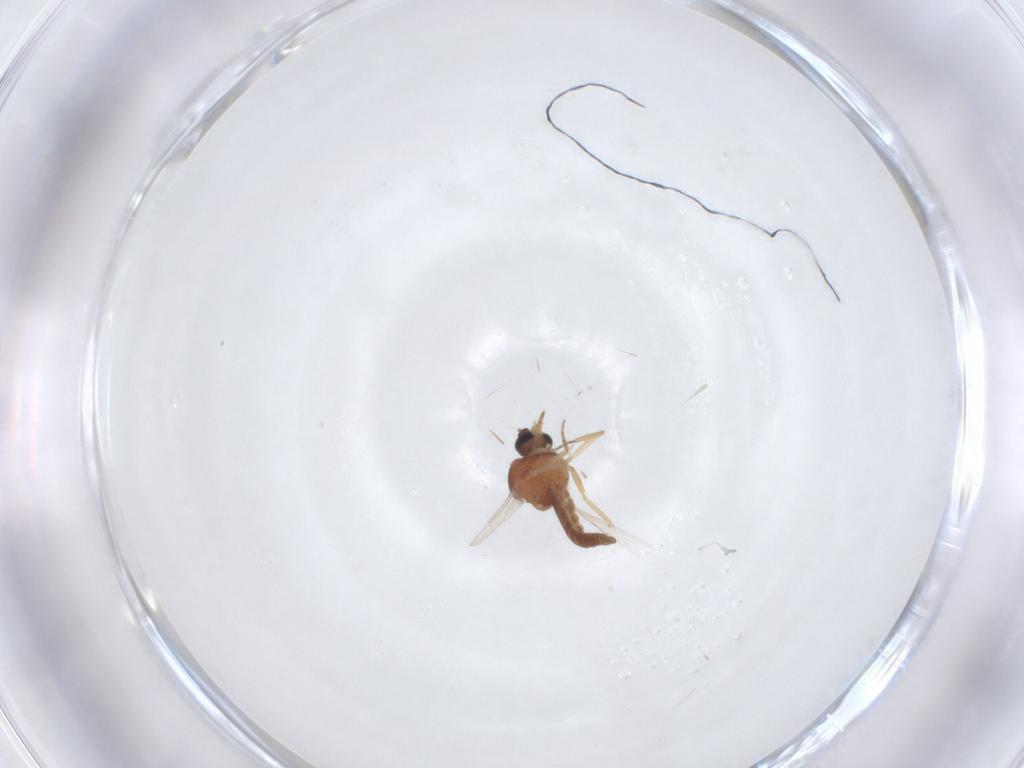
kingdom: Animalia
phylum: Arthropoda
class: Insecta
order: Diptera
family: Ceratopogonidae
